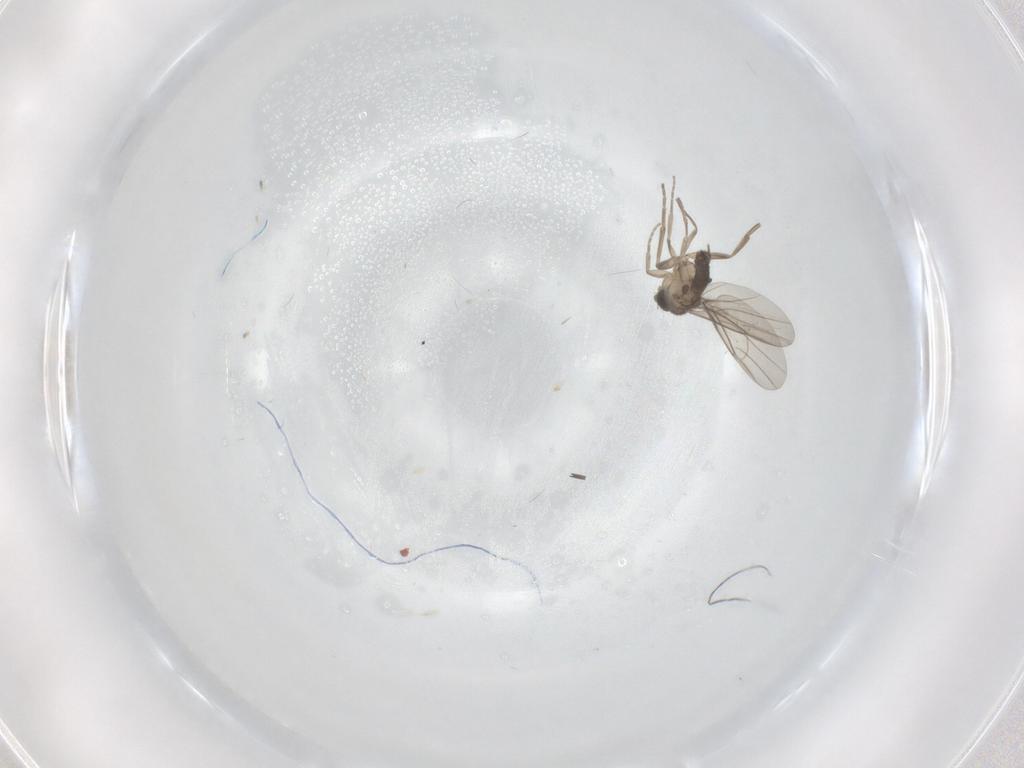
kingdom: Animalia
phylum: Arthropoda
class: Insecta
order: Diptera
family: Phoridae
